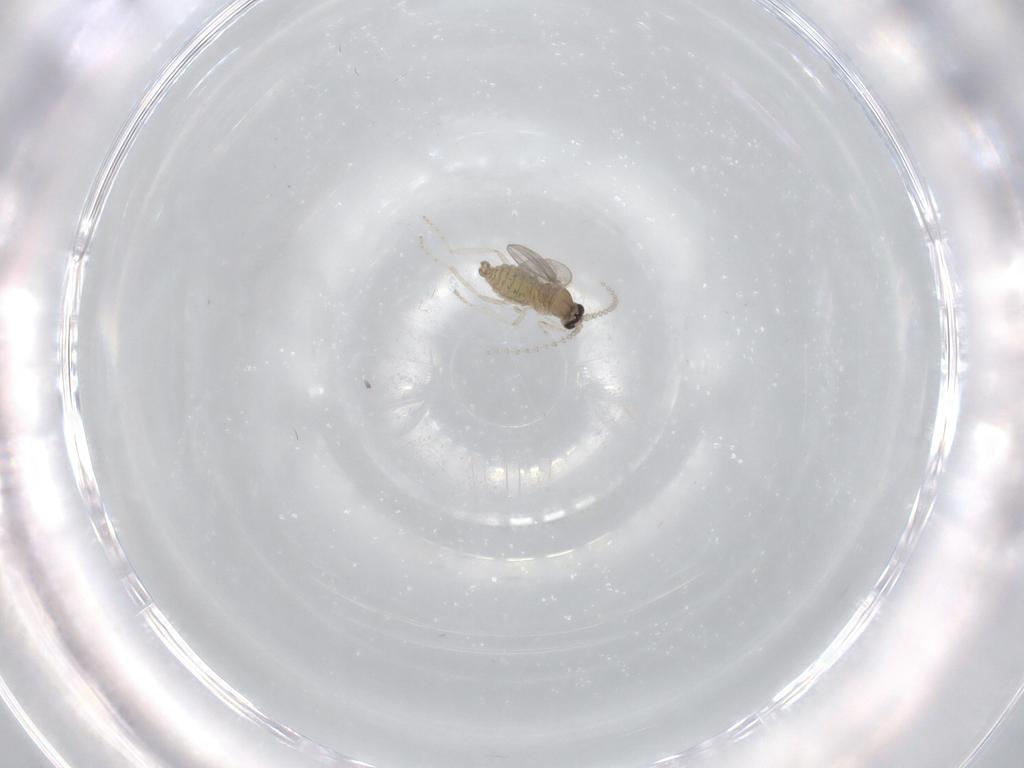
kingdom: Animalia
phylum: Arthropoda
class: Insecta
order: Diptera
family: Cecidomyiidae
